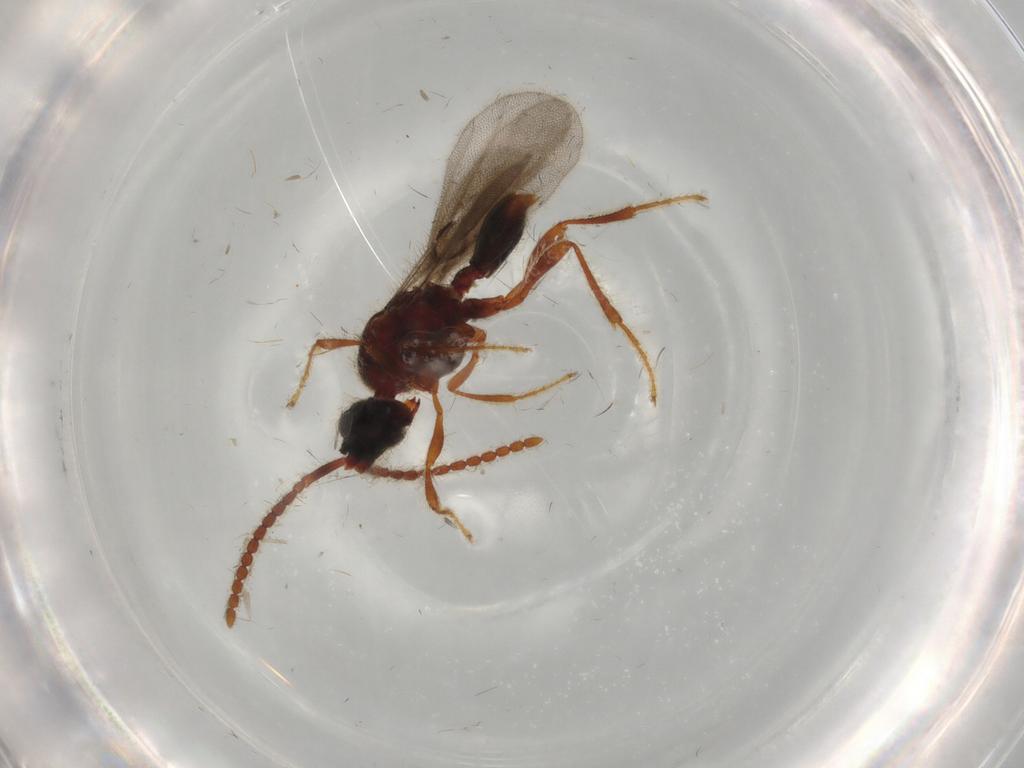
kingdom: Animalia
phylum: Arthropoda
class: Insecta
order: Hymenoptera
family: Diapriidae
